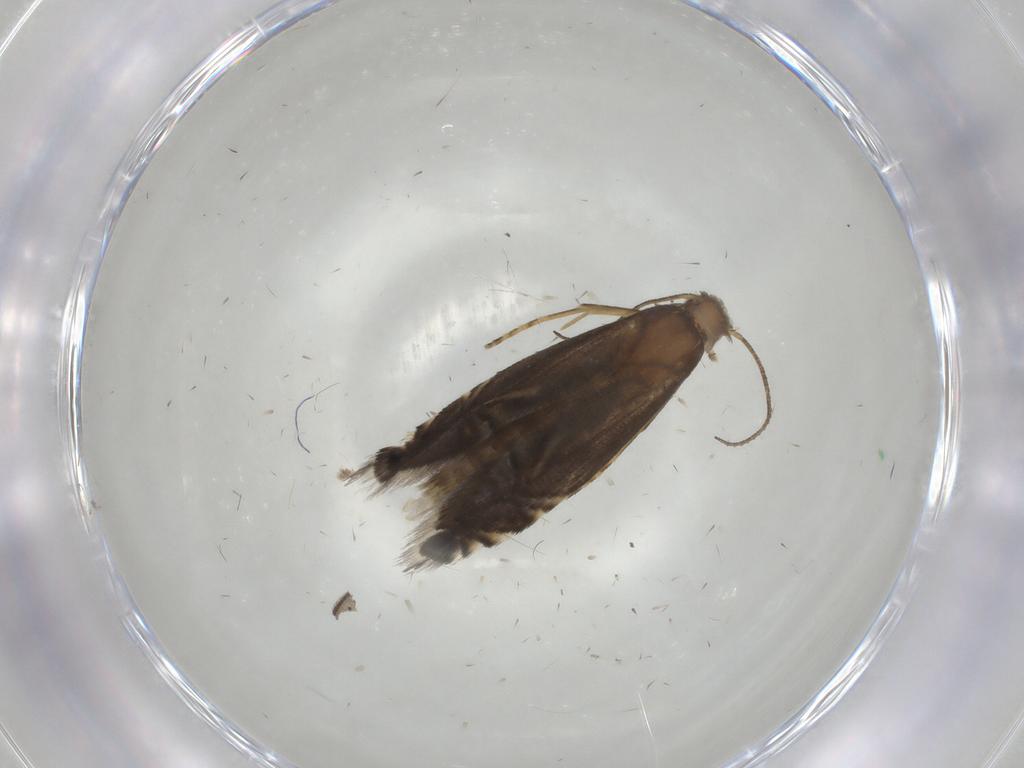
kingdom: Animalia
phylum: Arthropoda
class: Insecta
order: Lepidoptera
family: Glyphipterigidae
